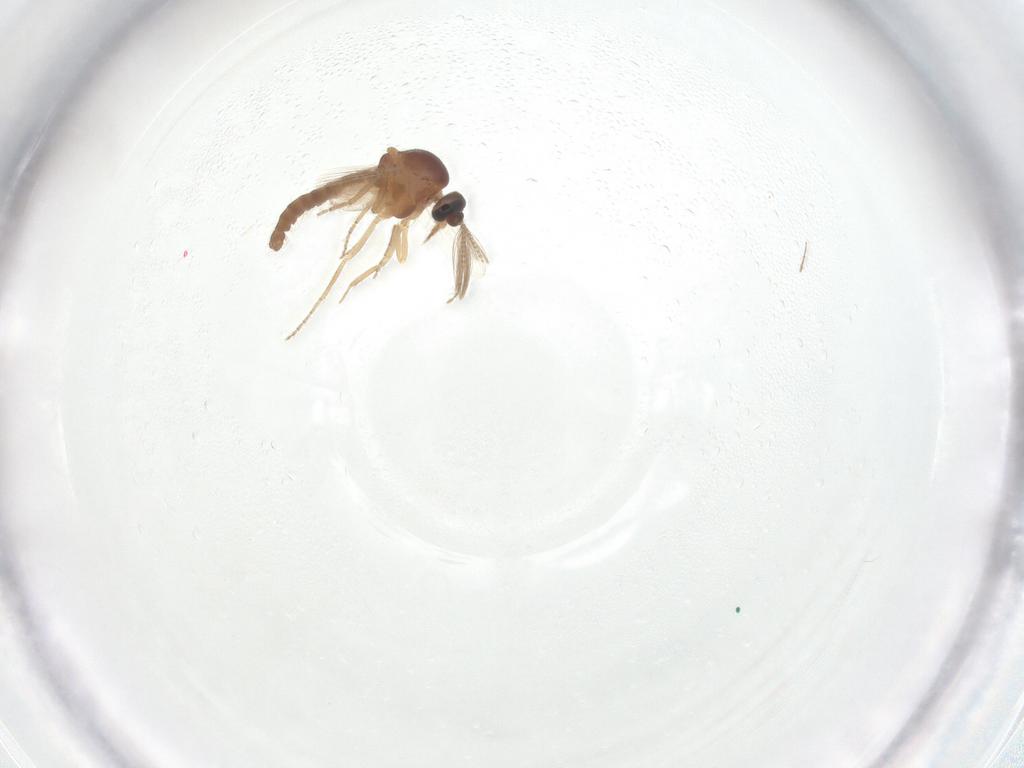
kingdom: Animalia
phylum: Arthropoda
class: Insecta
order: Diptera
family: Ceratopogonidae
